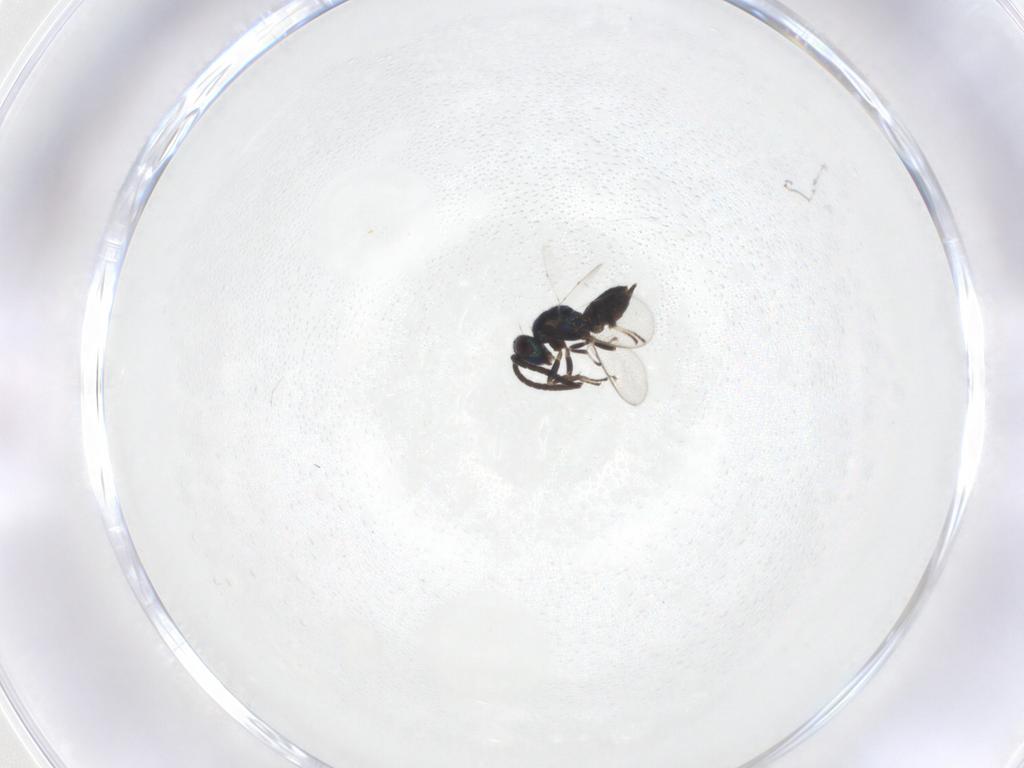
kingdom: Animalia
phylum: Arthropoda
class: Insecta
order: Hymenoptera
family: Eupelmidae
